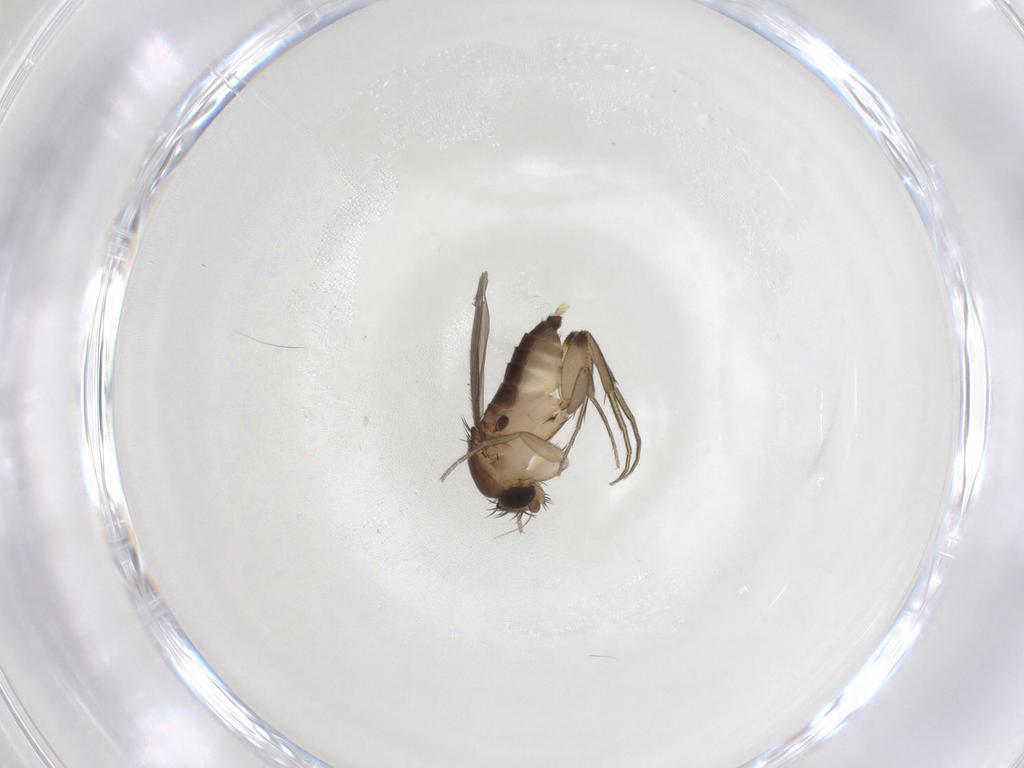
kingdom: Animalia
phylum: Arthropoda
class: Insecta
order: Diptera
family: Phoridae
